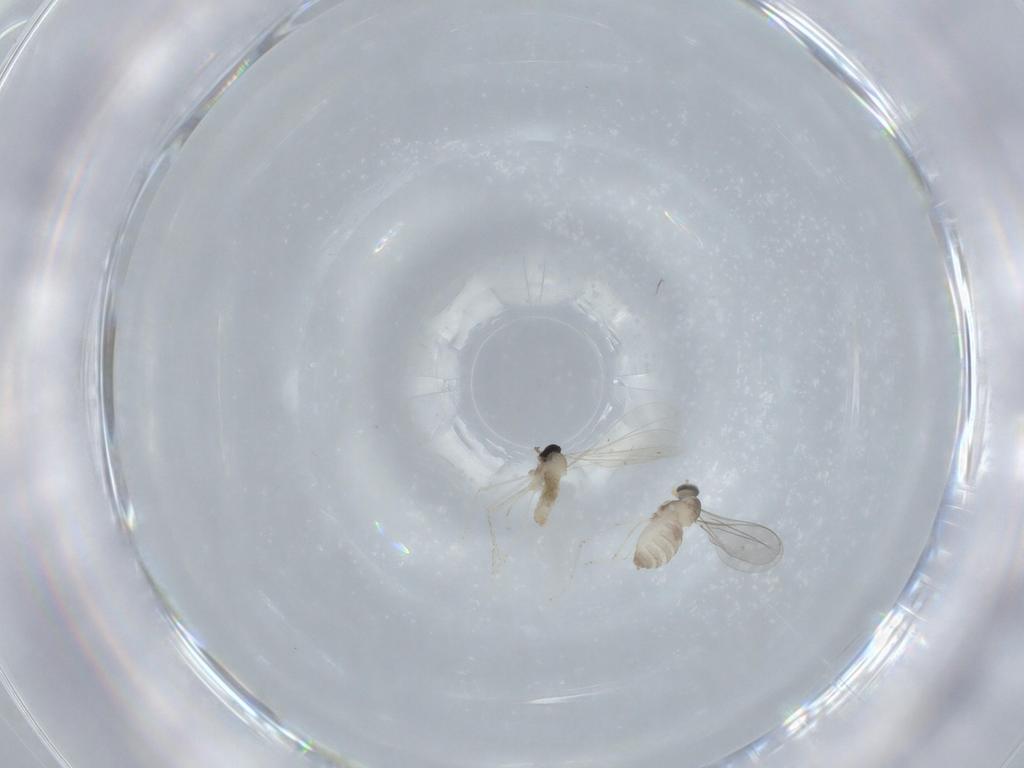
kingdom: Animalia
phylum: Arthropoda
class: Insecta
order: Diptera
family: Cecidomyiidae
